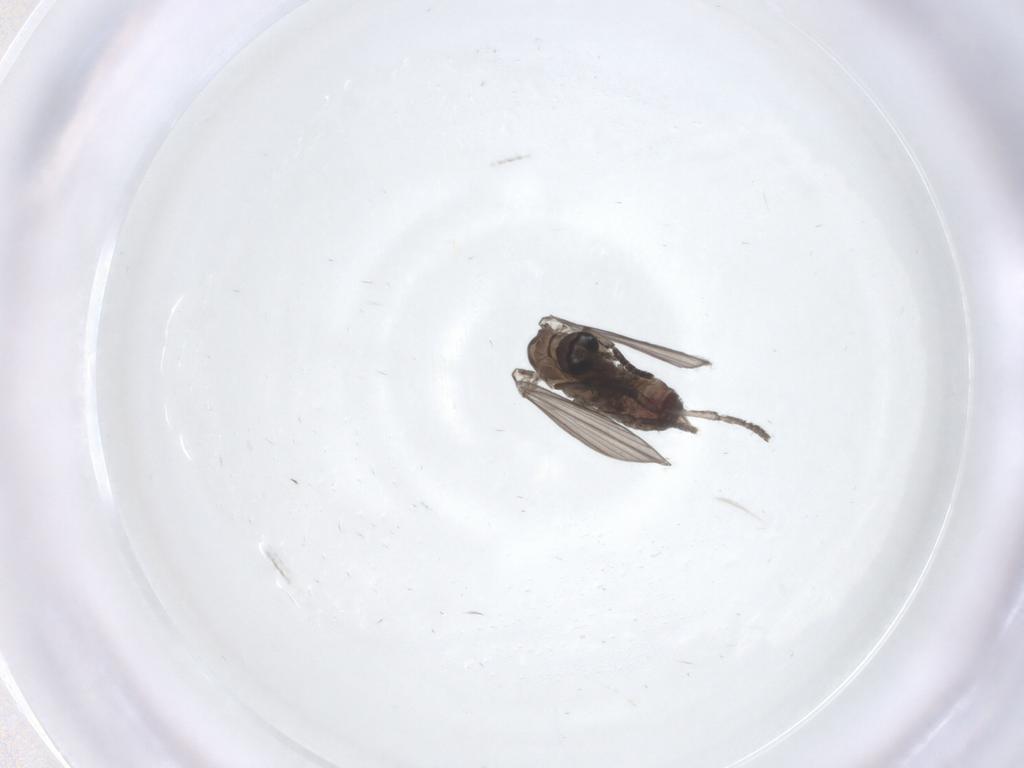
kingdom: Animalia
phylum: Arthropoda
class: Insecta
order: Diptera
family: Psychodidae
